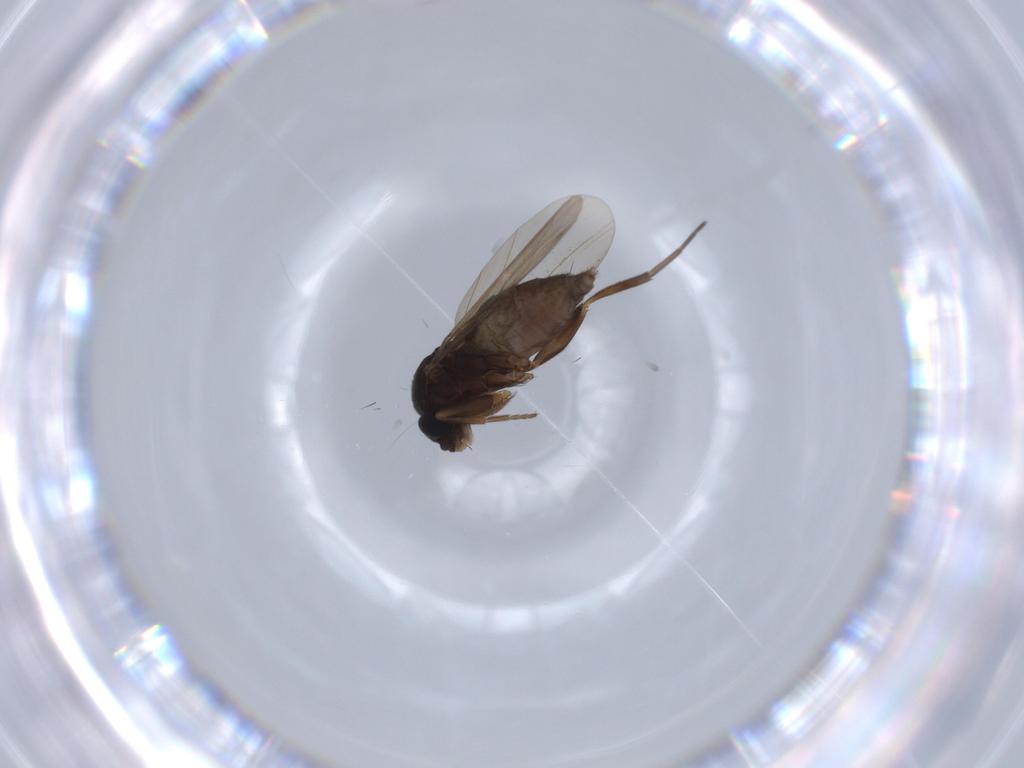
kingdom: Animalia
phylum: Arthropoda
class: Insecta
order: Diptera
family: Phoridae
